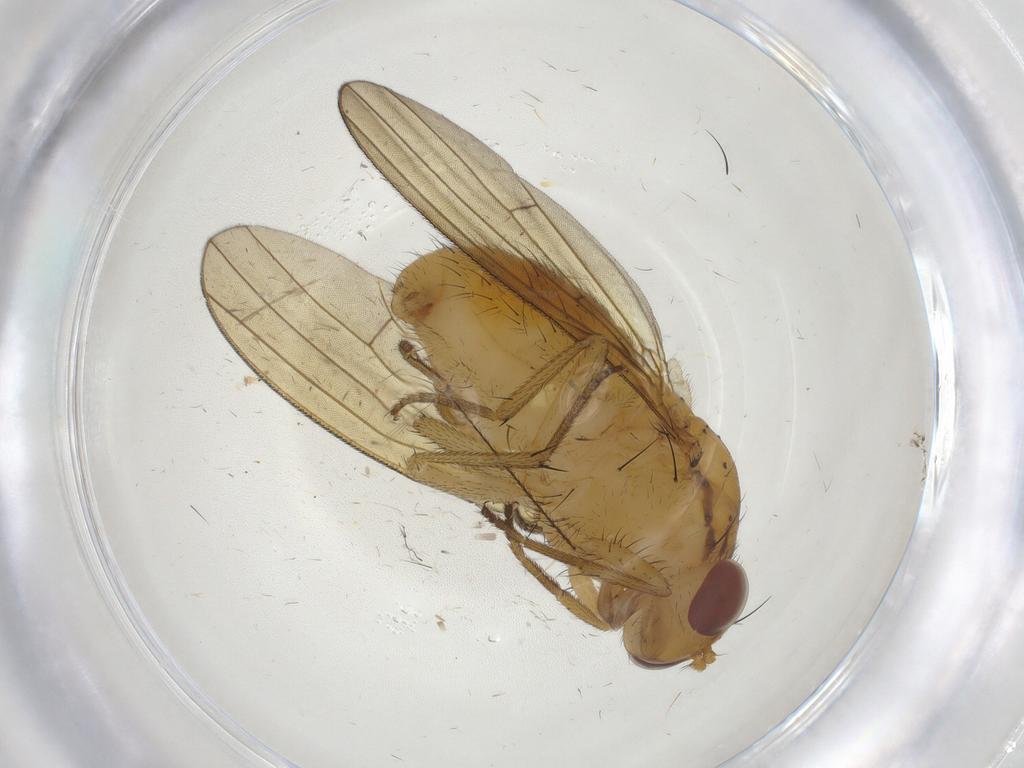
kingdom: Animalia
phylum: Arthropoda
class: Insecta
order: Diptera
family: Lauxaniidae
